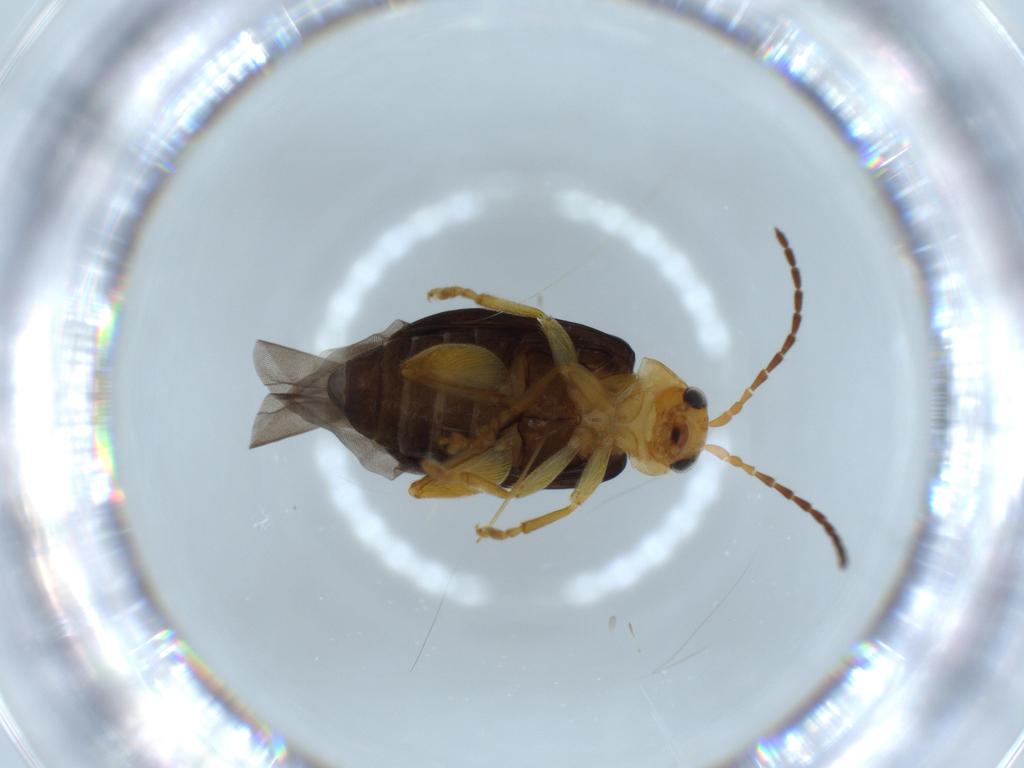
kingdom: Animalia
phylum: Arthropoda
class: Insecta
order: Coleoptera
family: Chrysomelidae
